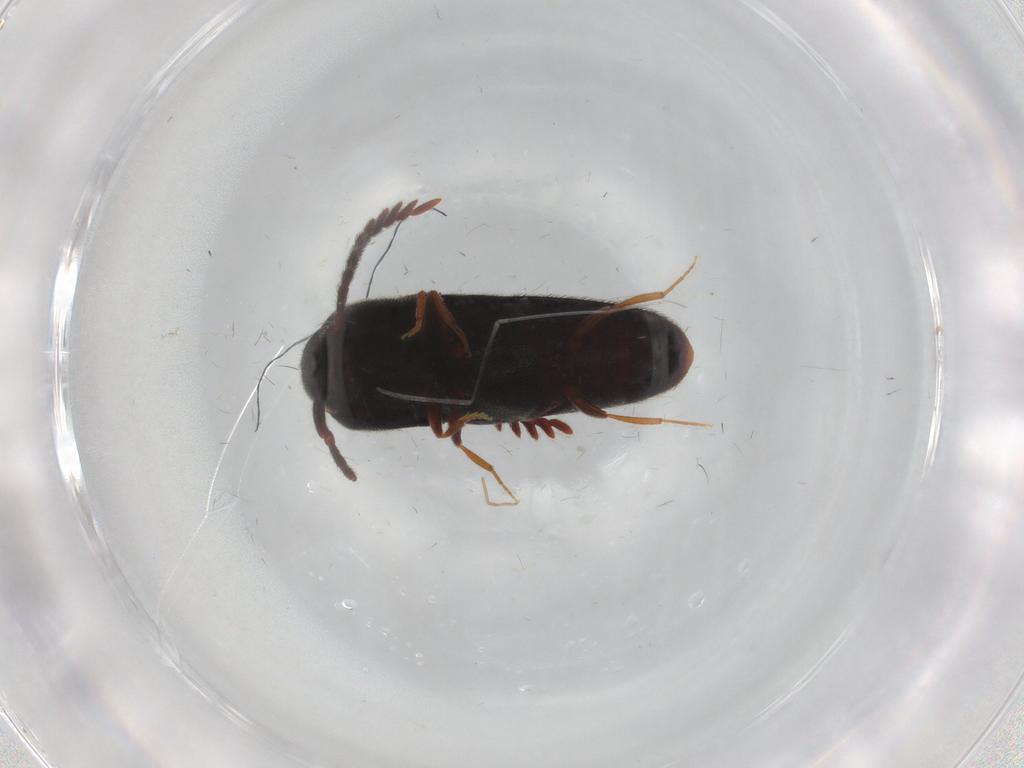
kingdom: Animalia
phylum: Arthropoda
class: Insecta
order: Coleoptera
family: Eucnemidae
